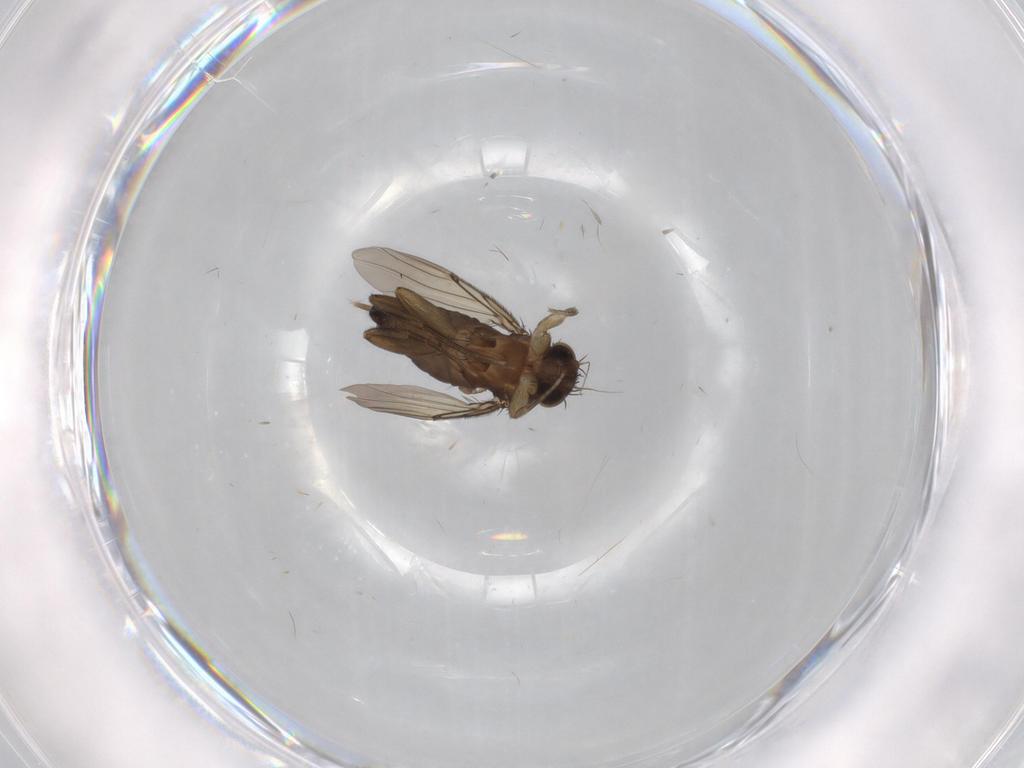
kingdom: Animalia
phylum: Arthropoda
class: Insecta
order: Diptera
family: Phoridae
